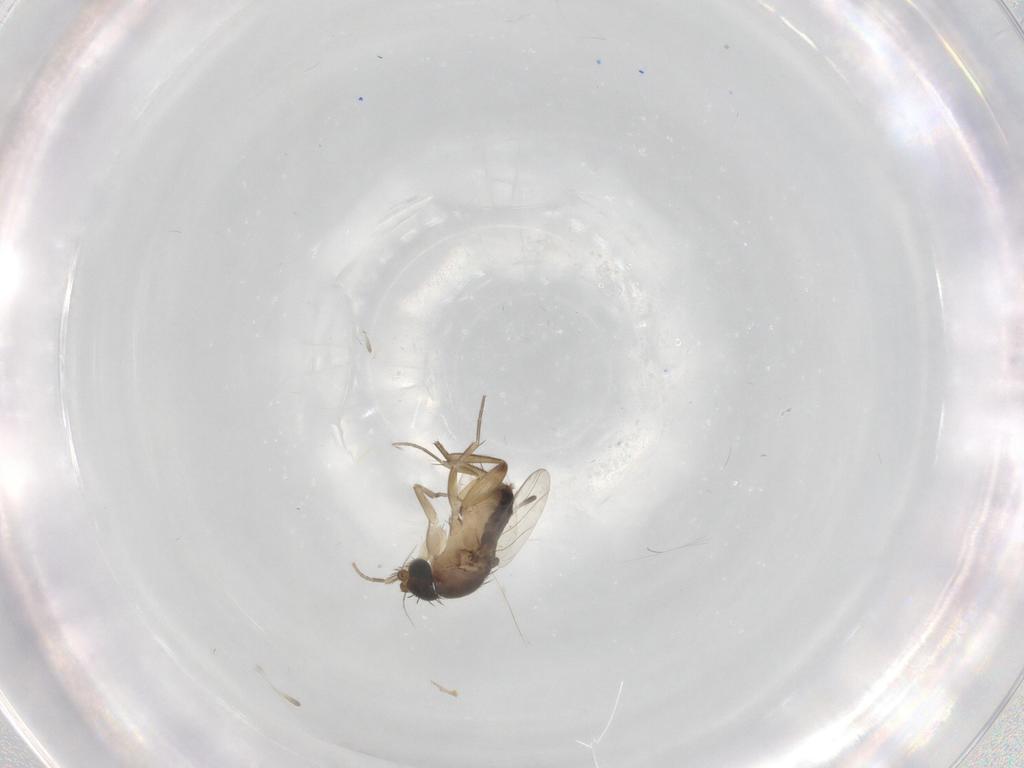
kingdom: Animalia
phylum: Arthropoda
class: Insecta
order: Diptera
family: Phoridae
